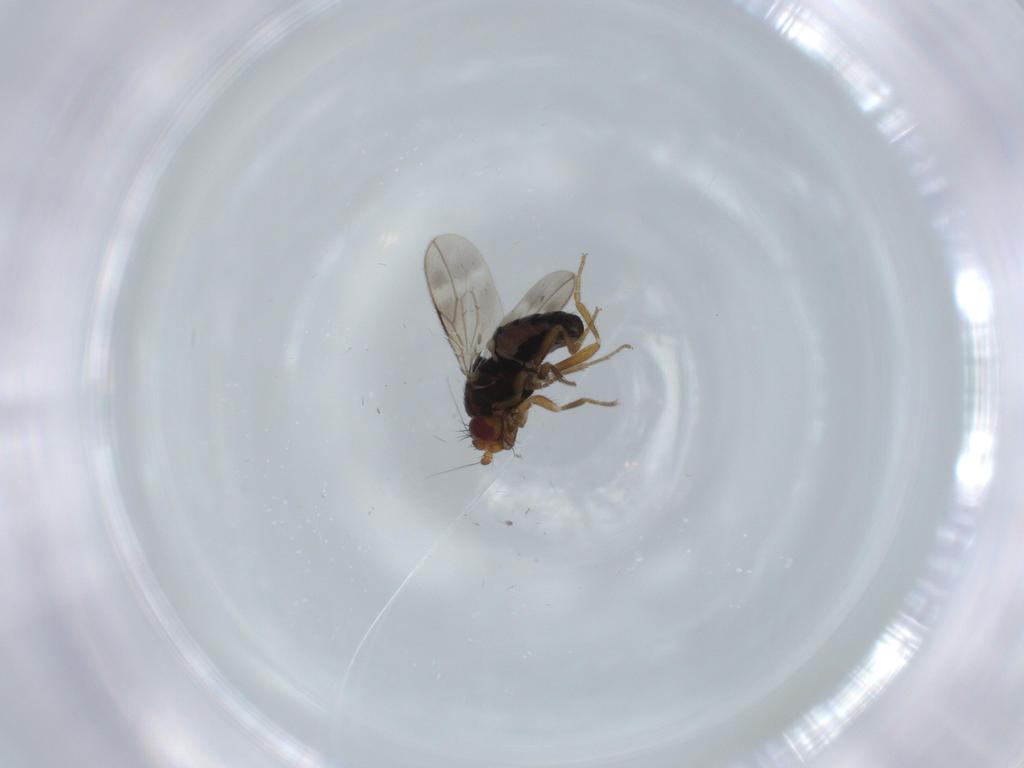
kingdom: Animalia
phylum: Arthropoda
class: Insecta
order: Diptera
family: Sphaeroceridae
